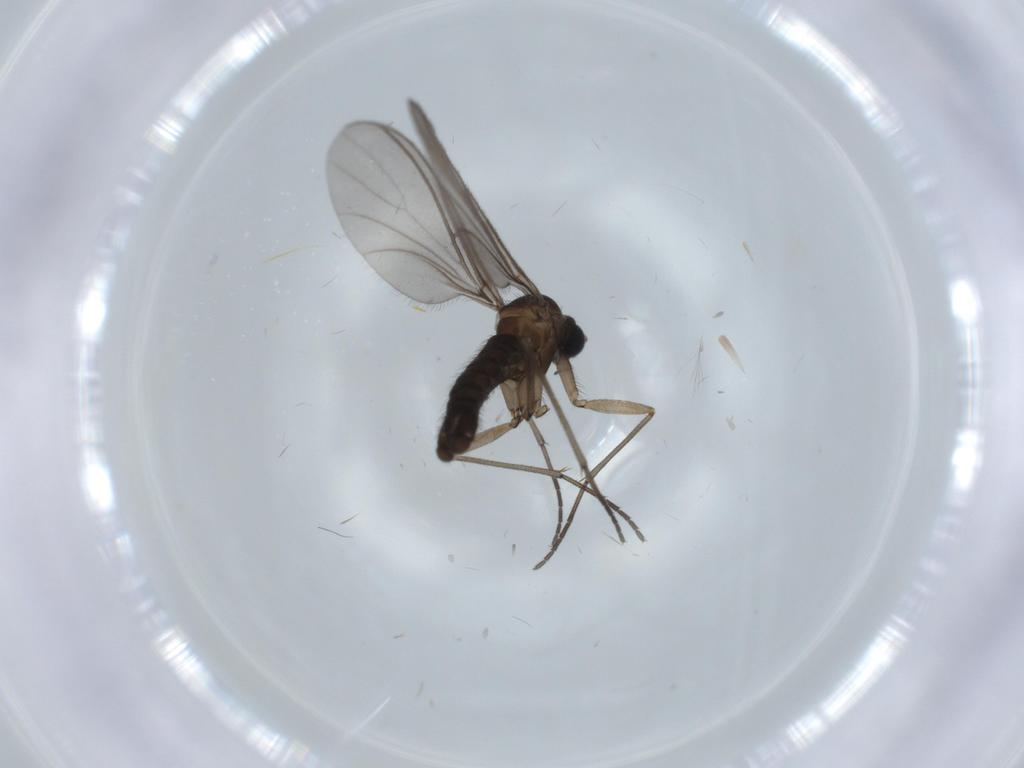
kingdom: Animalia
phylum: Arthropoda
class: Insecta
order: Diptera
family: Sciaridae
